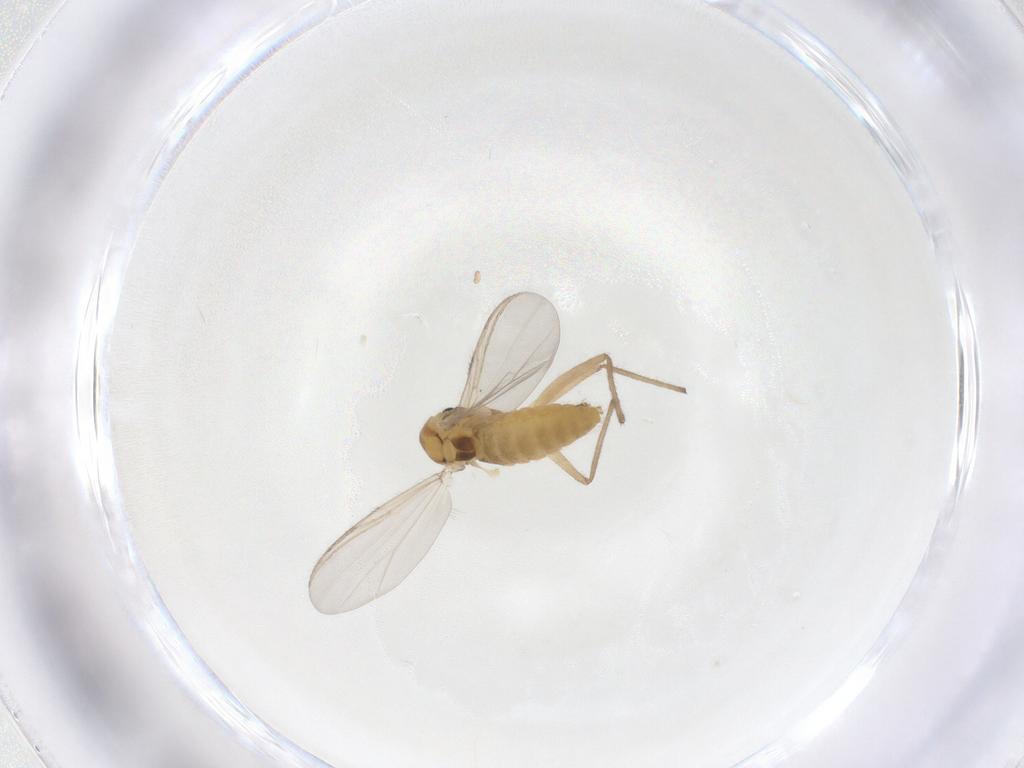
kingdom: Animalia
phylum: Arthropoda
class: Insecta
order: Diptera
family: Chironomidae
